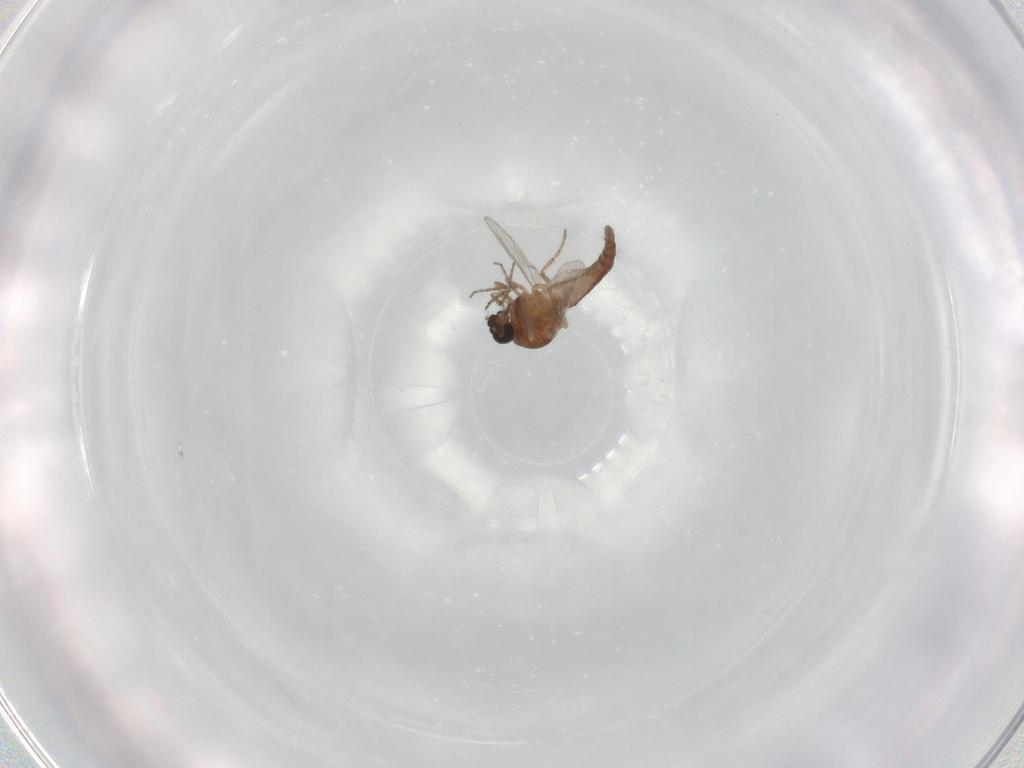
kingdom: Animalia
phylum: Arthropoda
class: Insecta
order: Diptera
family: Ceratopogonidae
